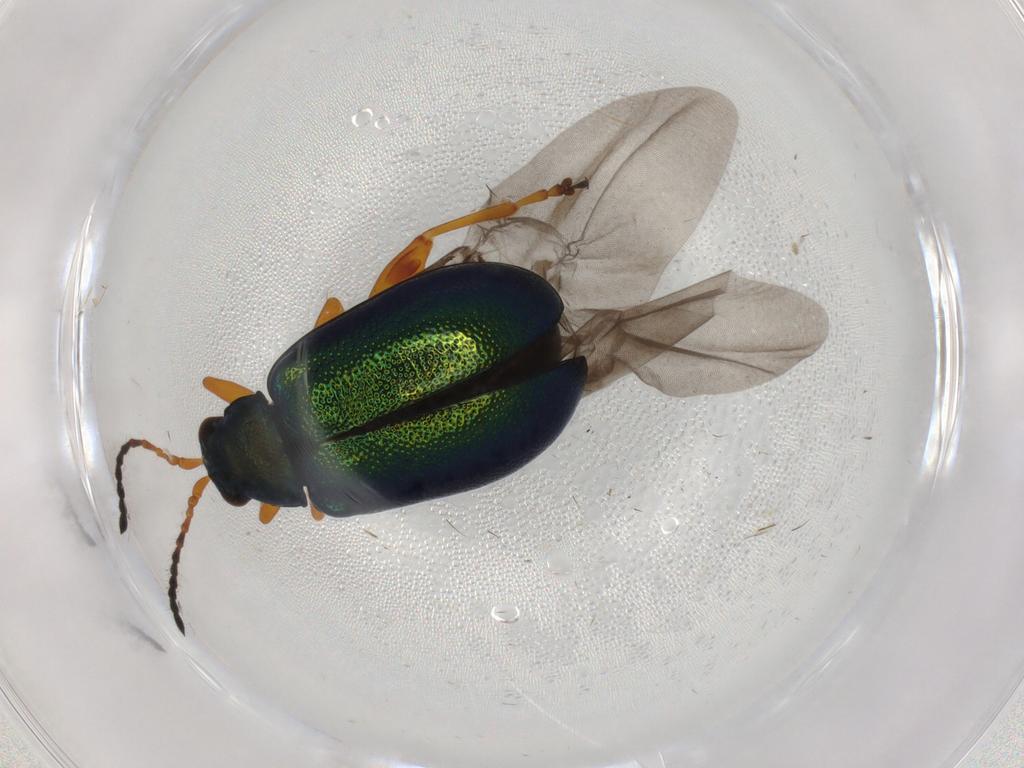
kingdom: Animalia
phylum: Arthropoda
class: Insecta
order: Coleoptera
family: Chrysomelidae
